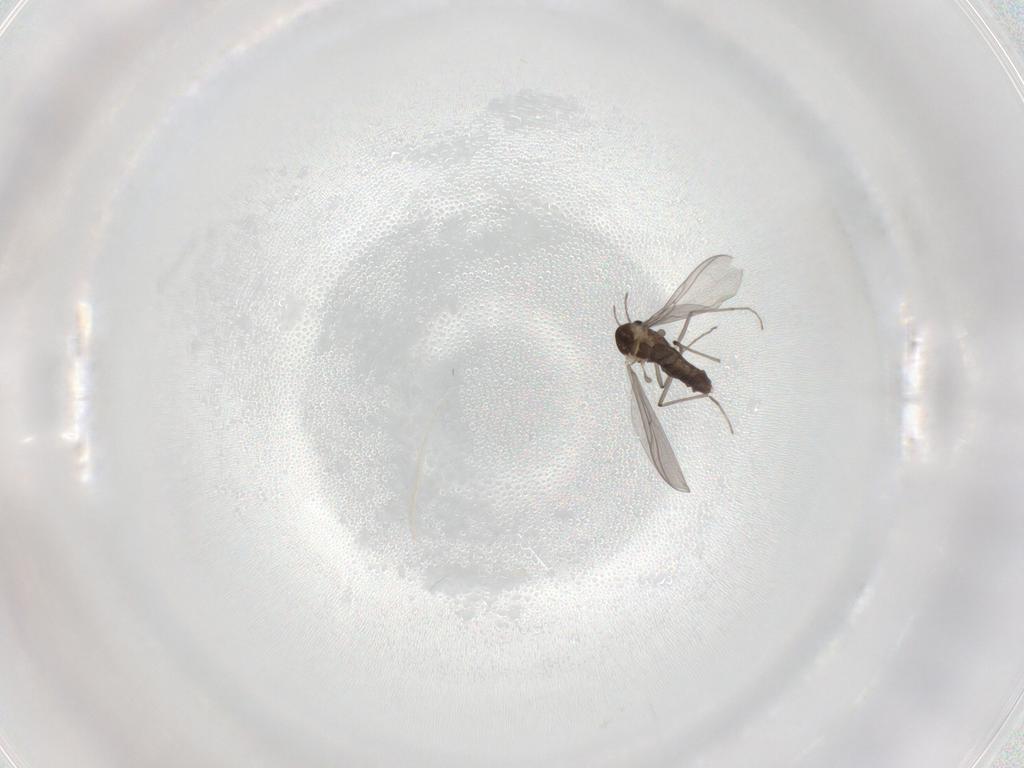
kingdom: Animalia
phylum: Arthropoda
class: Insecta
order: Diptera
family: Chironomidae
